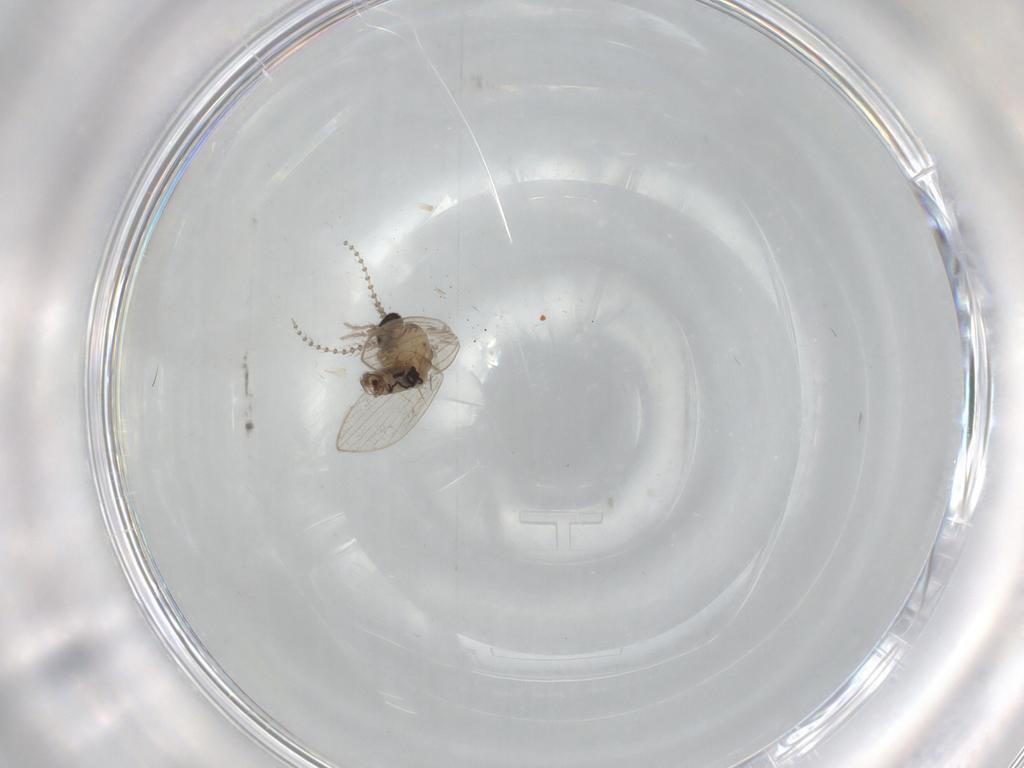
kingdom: Animalia
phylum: Arthropoda
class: Insecta
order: Diptera
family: Psychodidae
